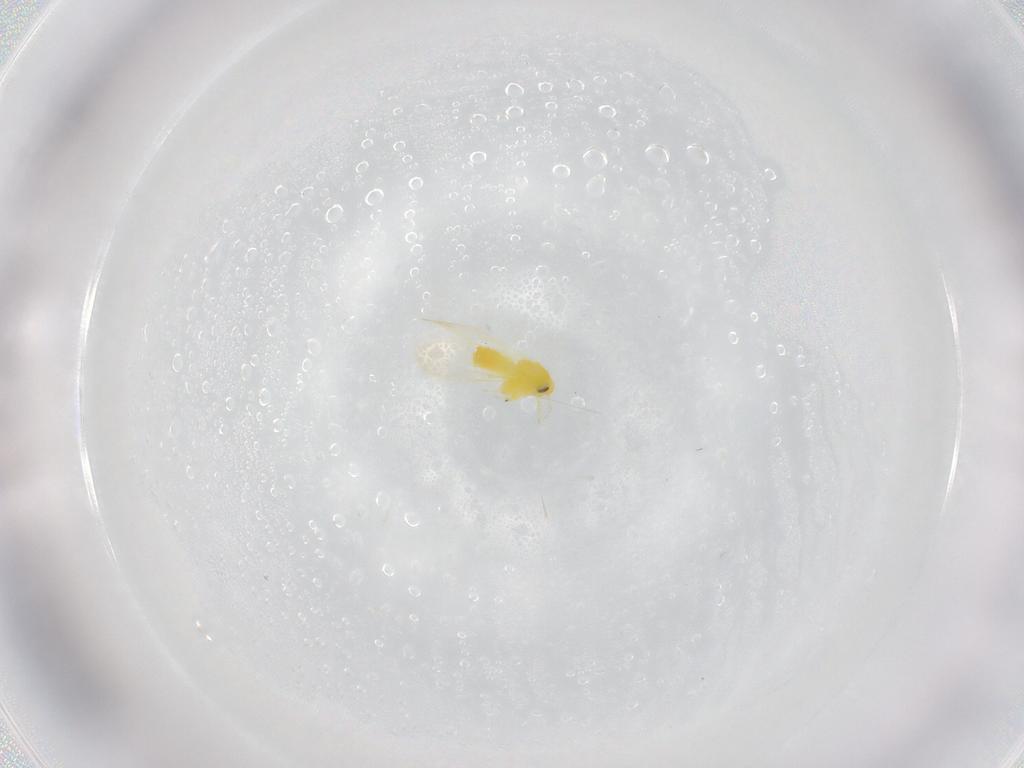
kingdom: Animalia
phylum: Arthropoda
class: Insecta
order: Hemiptera
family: Aleyrodidae
